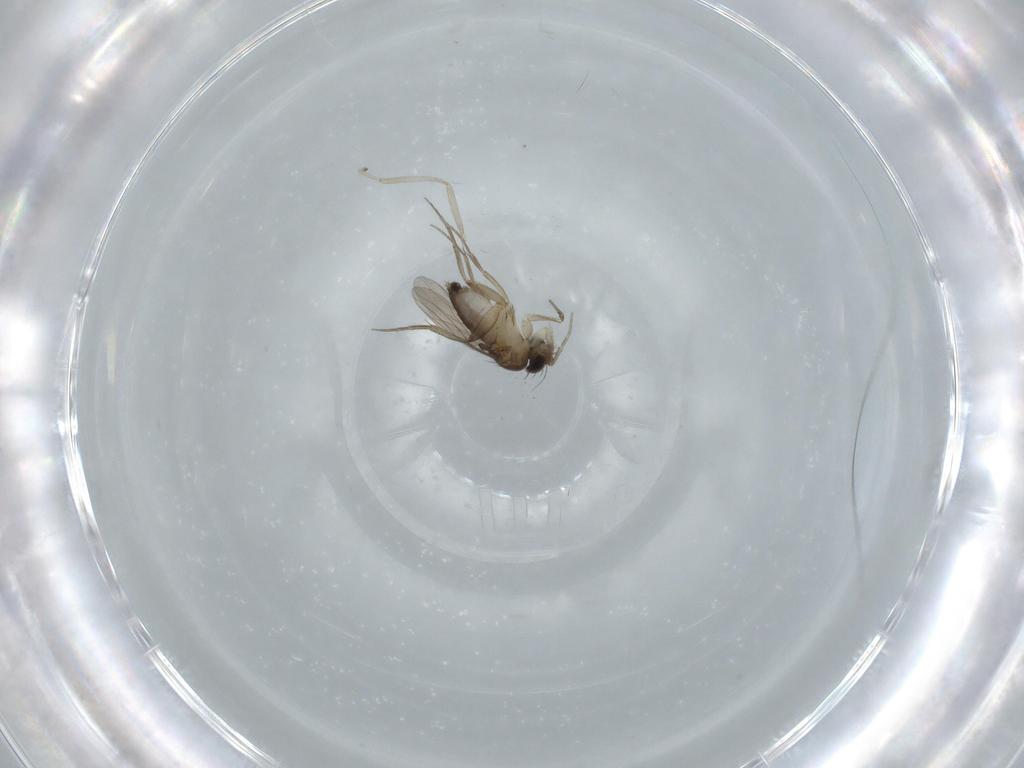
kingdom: Animalia
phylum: Arthropoda
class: Insecta
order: Diptera
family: Phoridae
